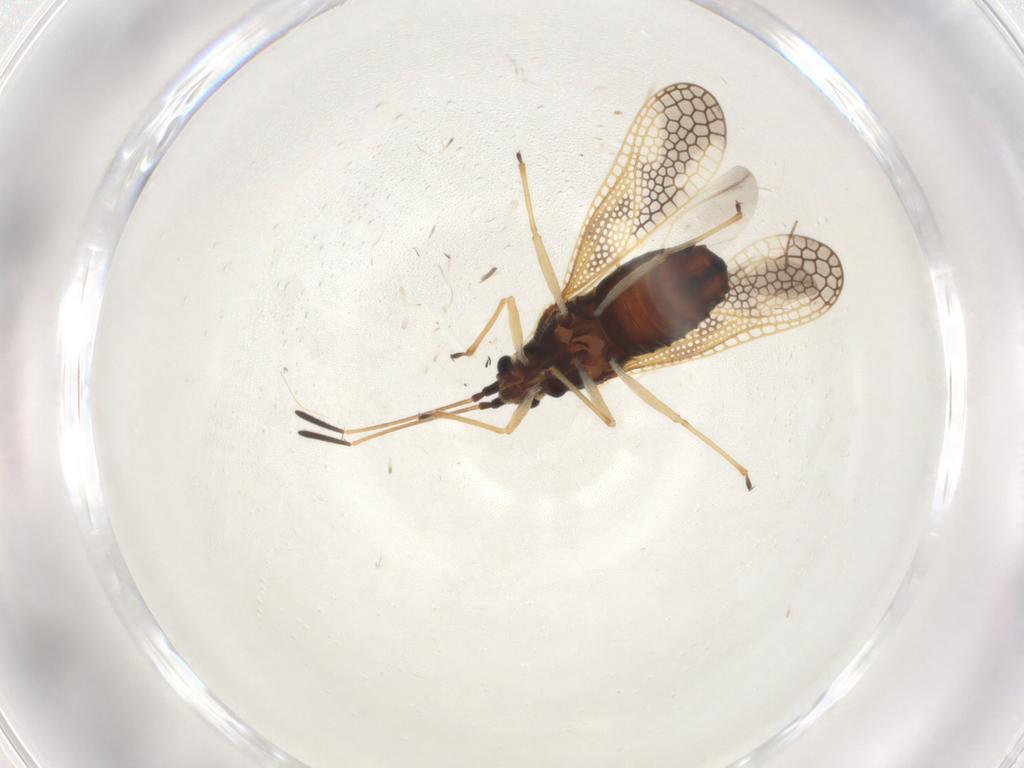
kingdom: Animalia
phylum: Arthropoda
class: Insecta
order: Hemiptera
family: Tingidae
